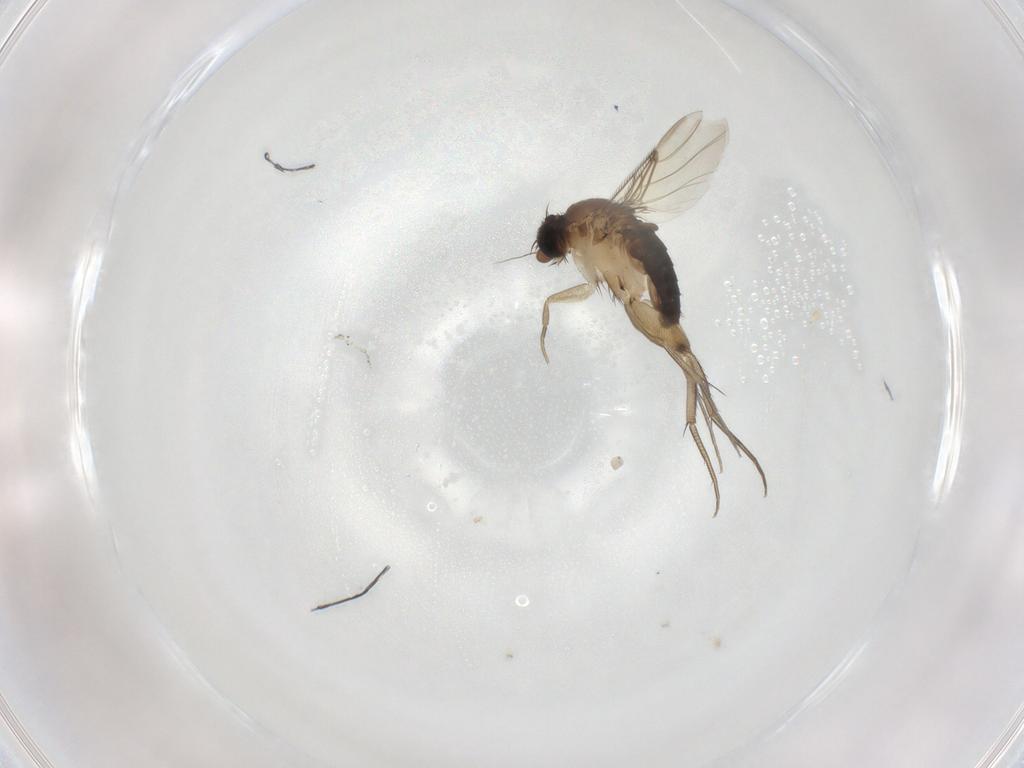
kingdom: Animalia
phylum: Arthropoda
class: Insecta
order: Diptera
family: Phoridae
